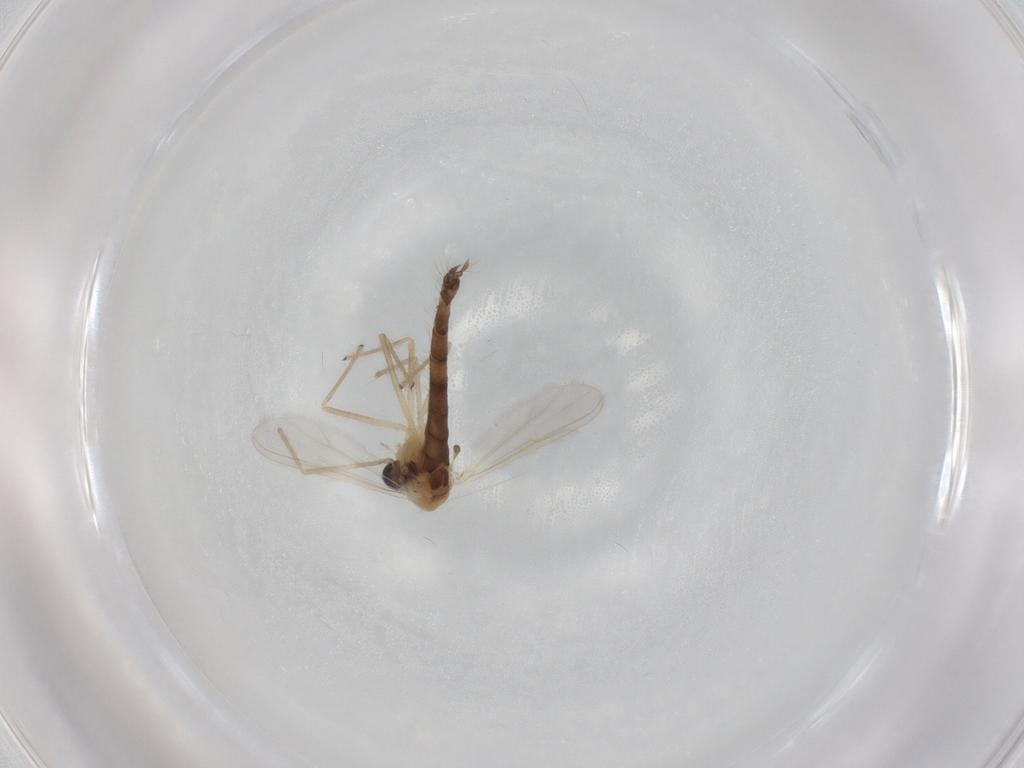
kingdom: Animalia
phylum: Arthropoda
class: Insecta
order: Diptera
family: Chironomidae
